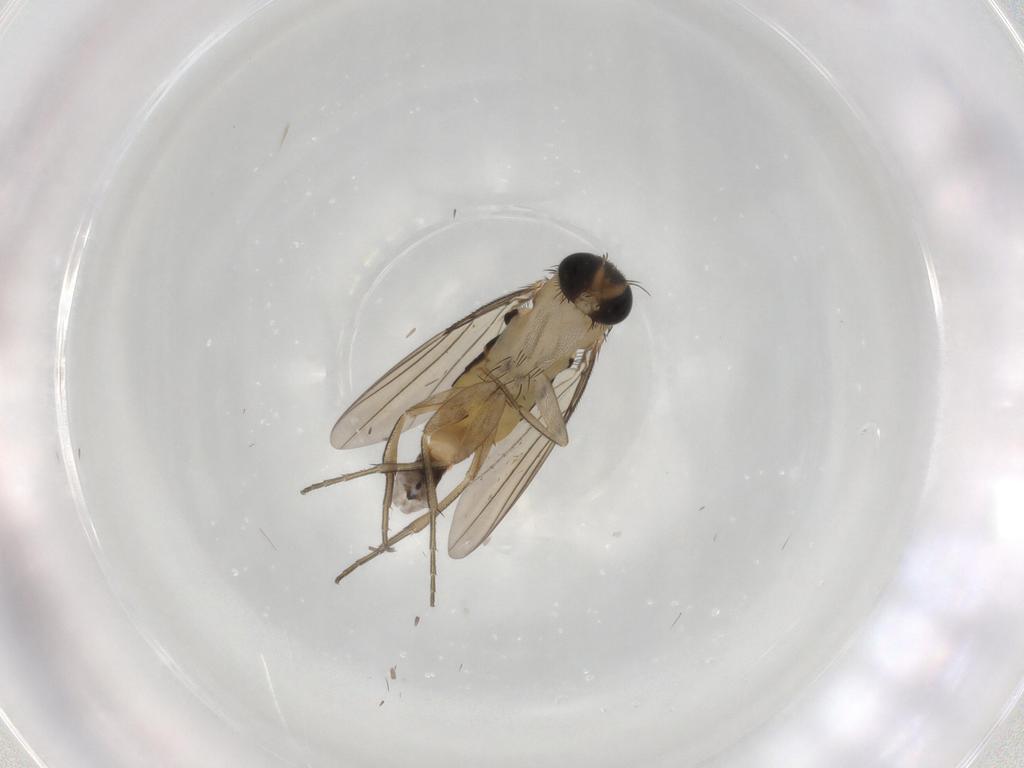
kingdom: Animalia
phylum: Arthropoda
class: Insecta
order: Diptera
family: Phoridae
